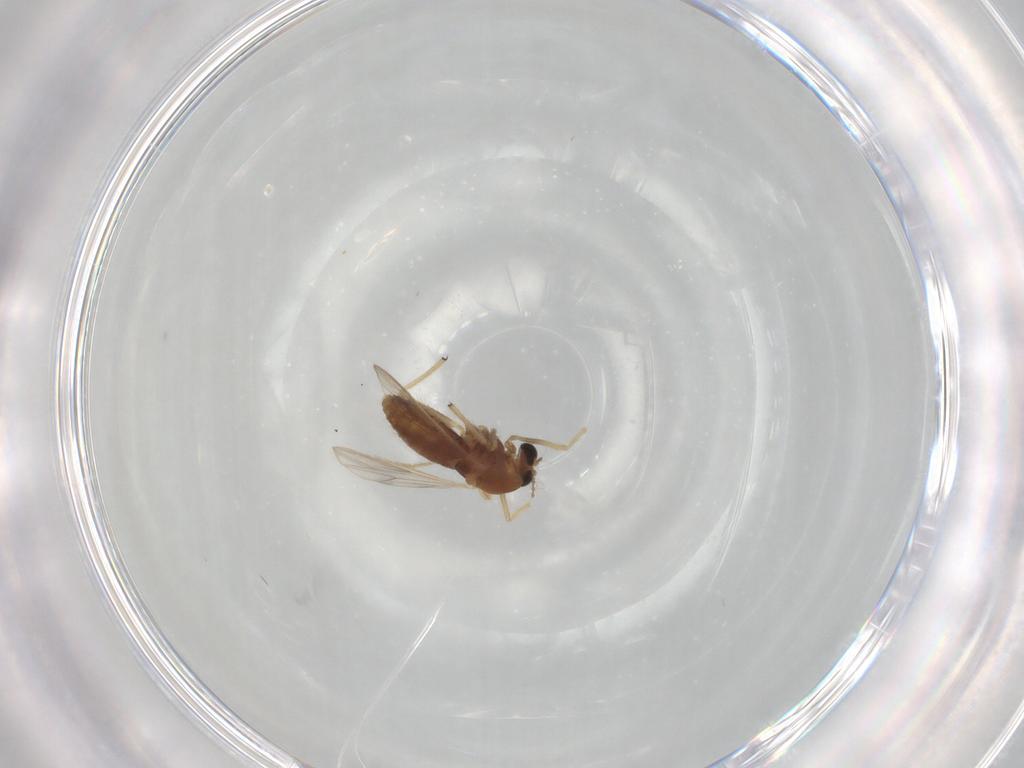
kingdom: Animalia
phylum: Arthropoda
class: Insecta
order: Diptera
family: Chironomidae
